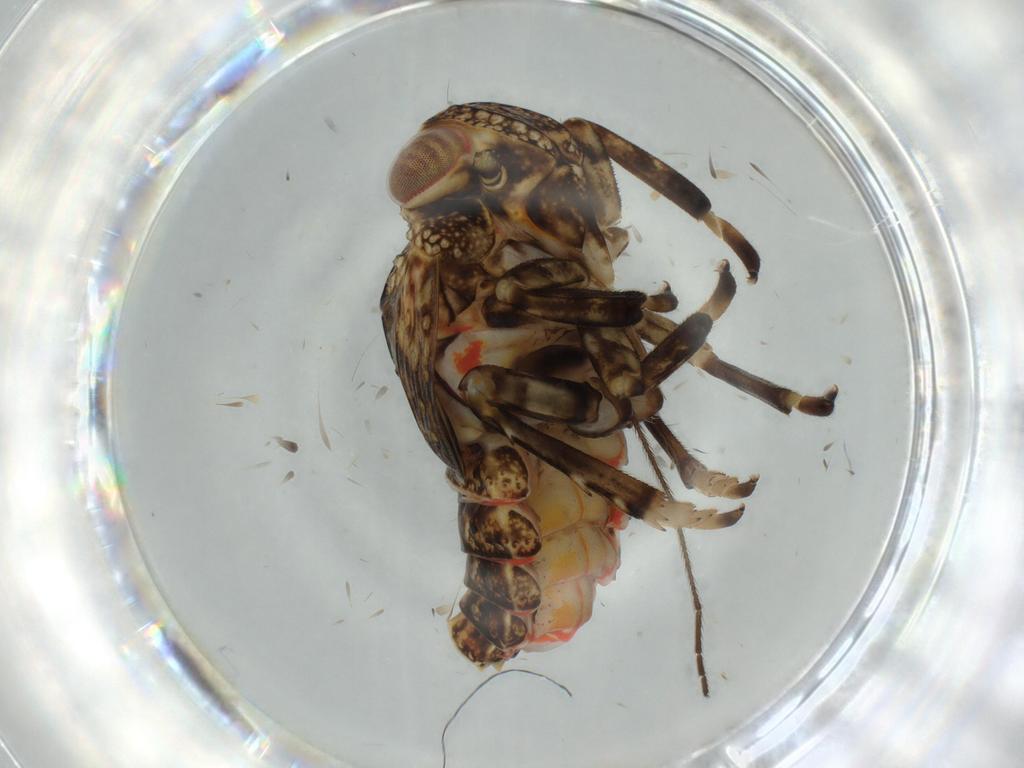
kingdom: Animalia
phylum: Arthropoda
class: Insecta
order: Hemiptera
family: Issidae
